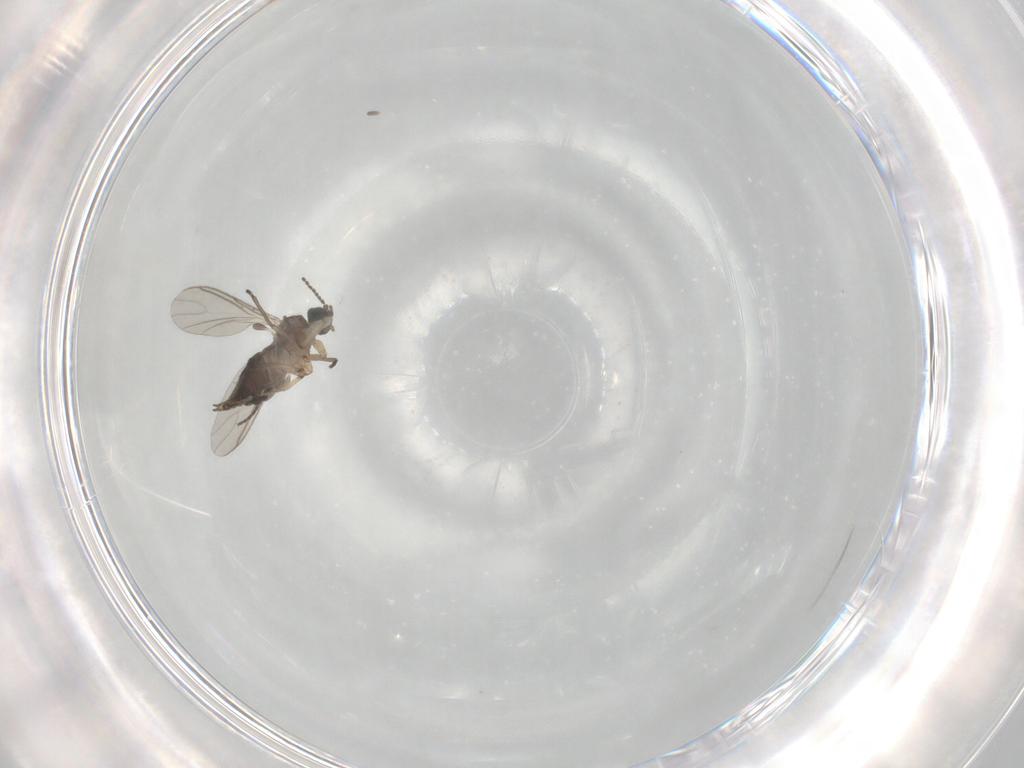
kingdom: Animalia
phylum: Arthropoda
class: Insecta
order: Diptera
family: Sciaridae
